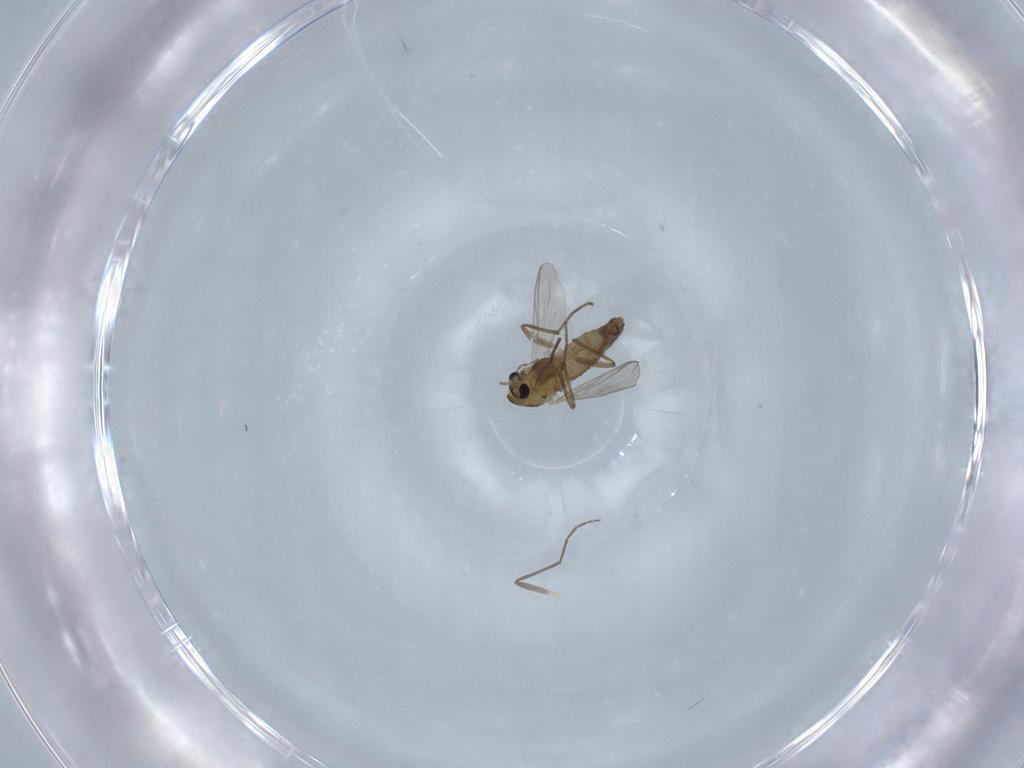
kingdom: Animalia
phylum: Arthropoda
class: Insecta
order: Diptera
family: Chironomidae
